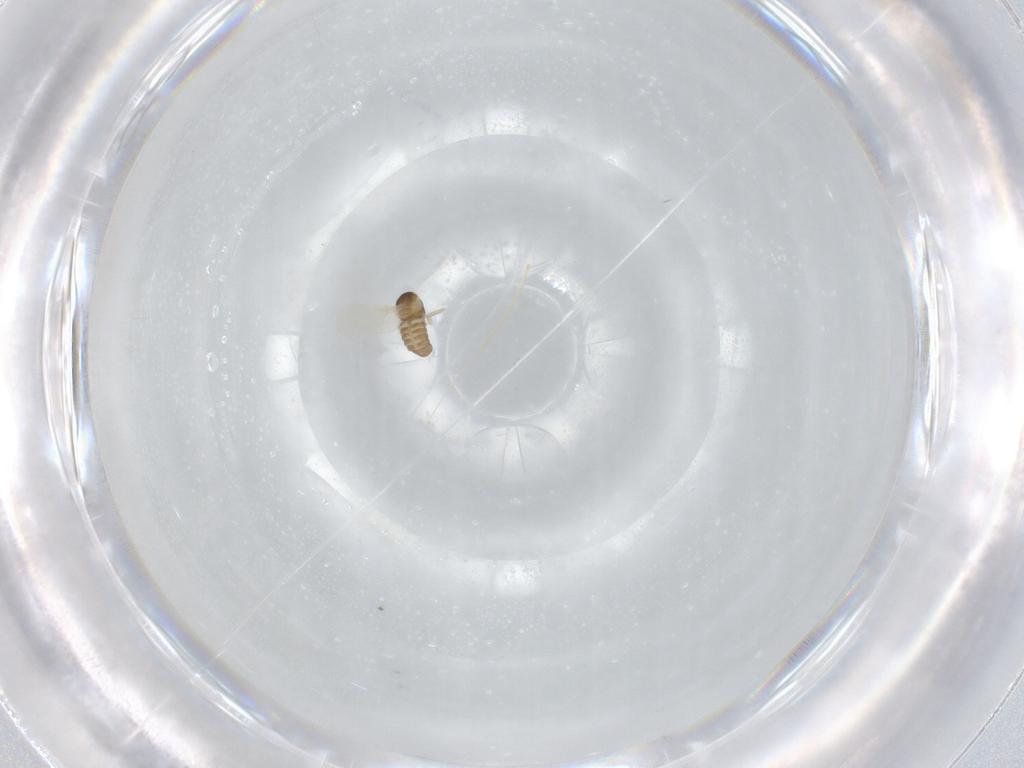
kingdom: Animalia
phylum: Arthropoda
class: Insecta
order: Diptera
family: Cecidomyiidae
